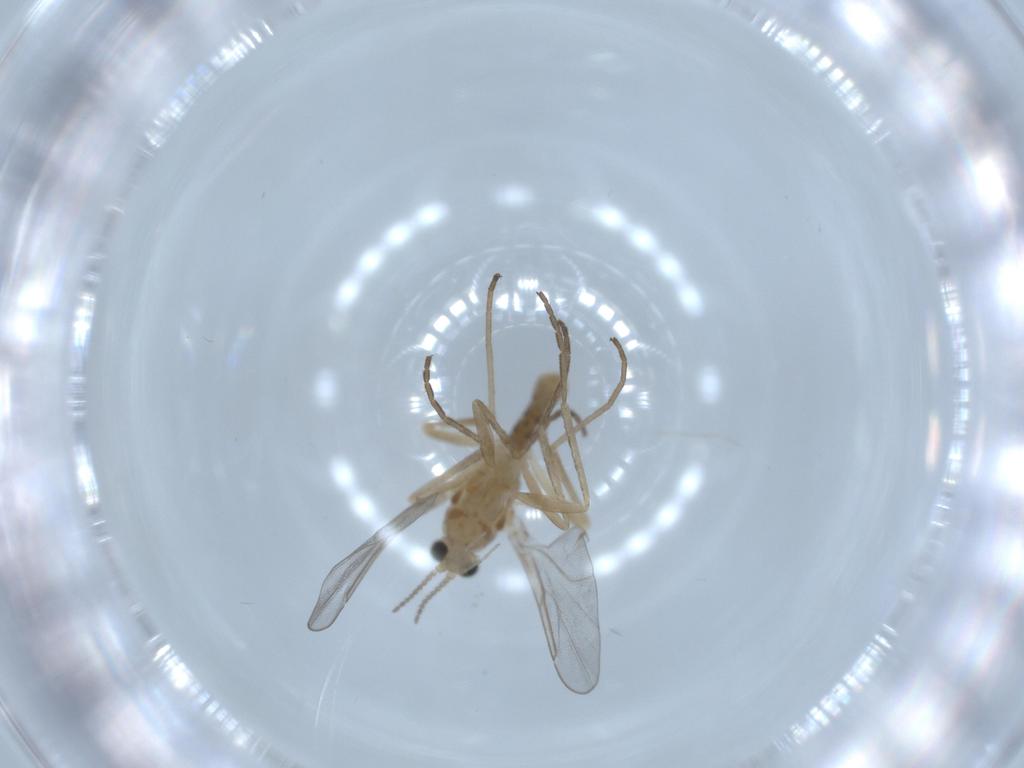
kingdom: Animalia
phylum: Arthropoda
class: Insecta
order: Diptera
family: Cecidomyiidae
